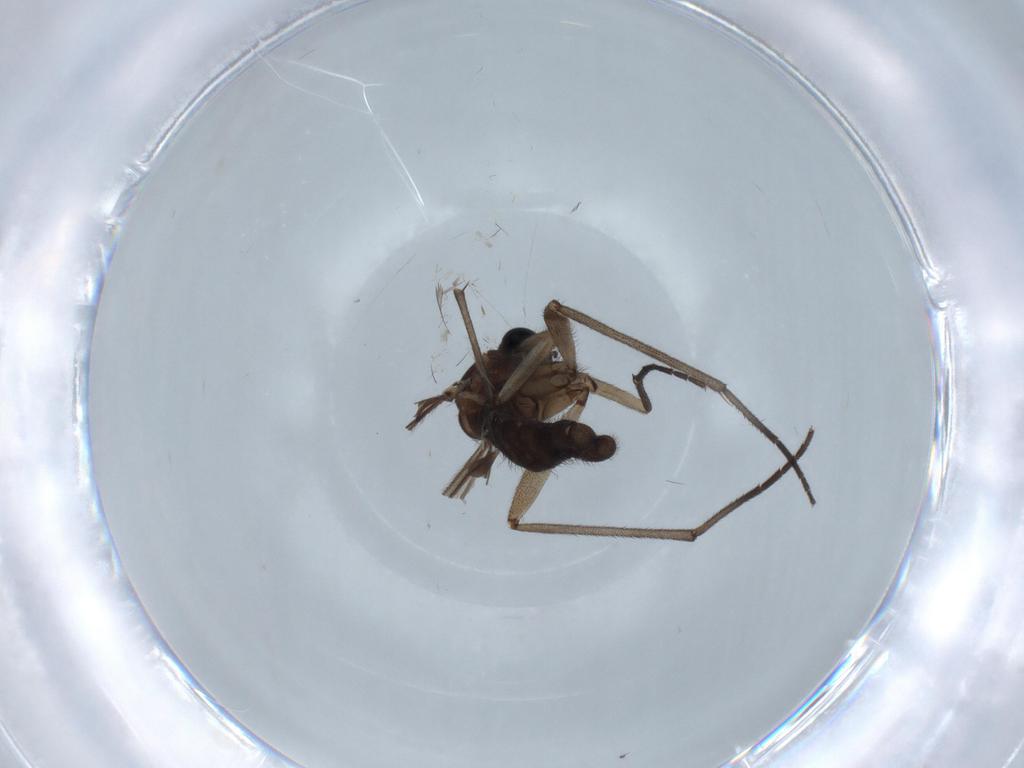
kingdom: Animalia
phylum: Arthropoda
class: Insecta
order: Diptera
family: Sciaridae
